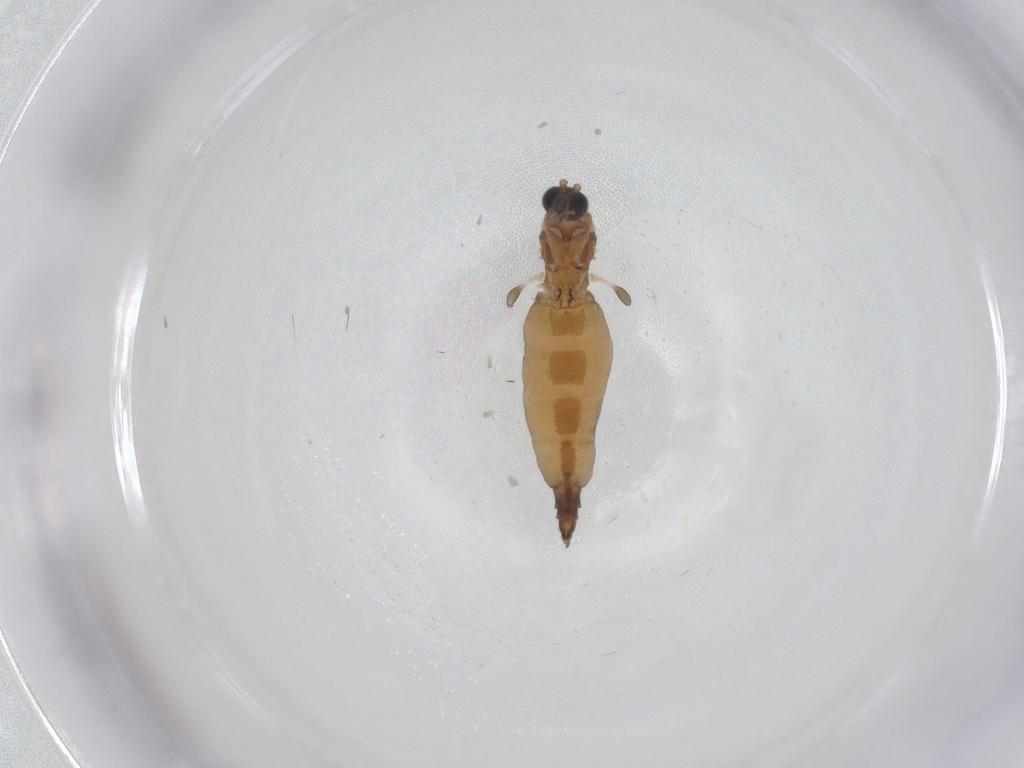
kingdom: Animalia
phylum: Arthropoda
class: Insecta
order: Diptera
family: Sciaridae
